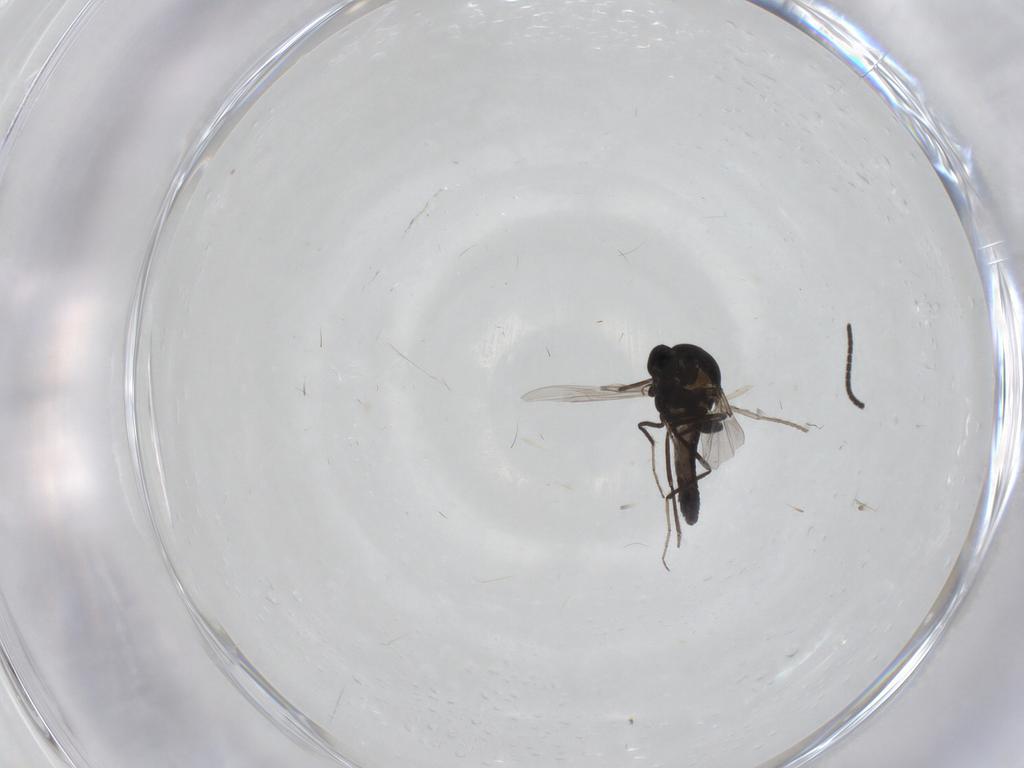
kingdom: Animalia
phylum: Arthropoda
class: Insecta
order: Diptera
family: Ceratopogonidae
